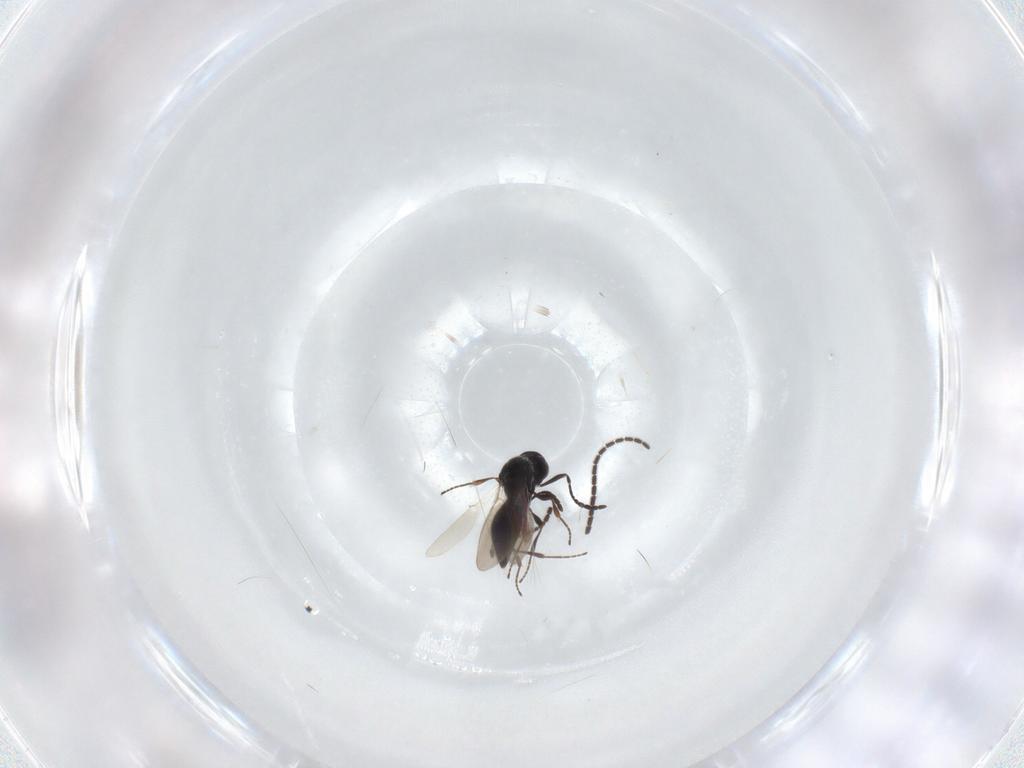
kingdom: Animalia
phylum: Arthropoda
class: Insecta
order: Hymenoptera
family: Platygastridae
